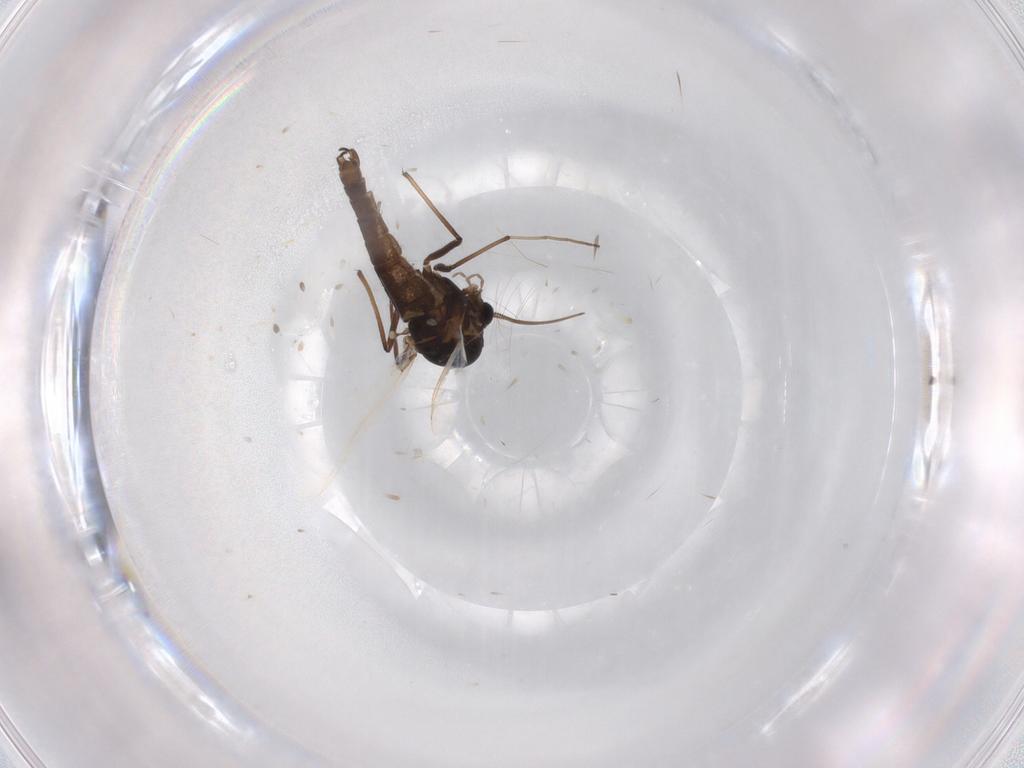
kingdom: Animalia
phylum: Arthropoda
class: Insecta
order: Diptera
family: Chironomidae
